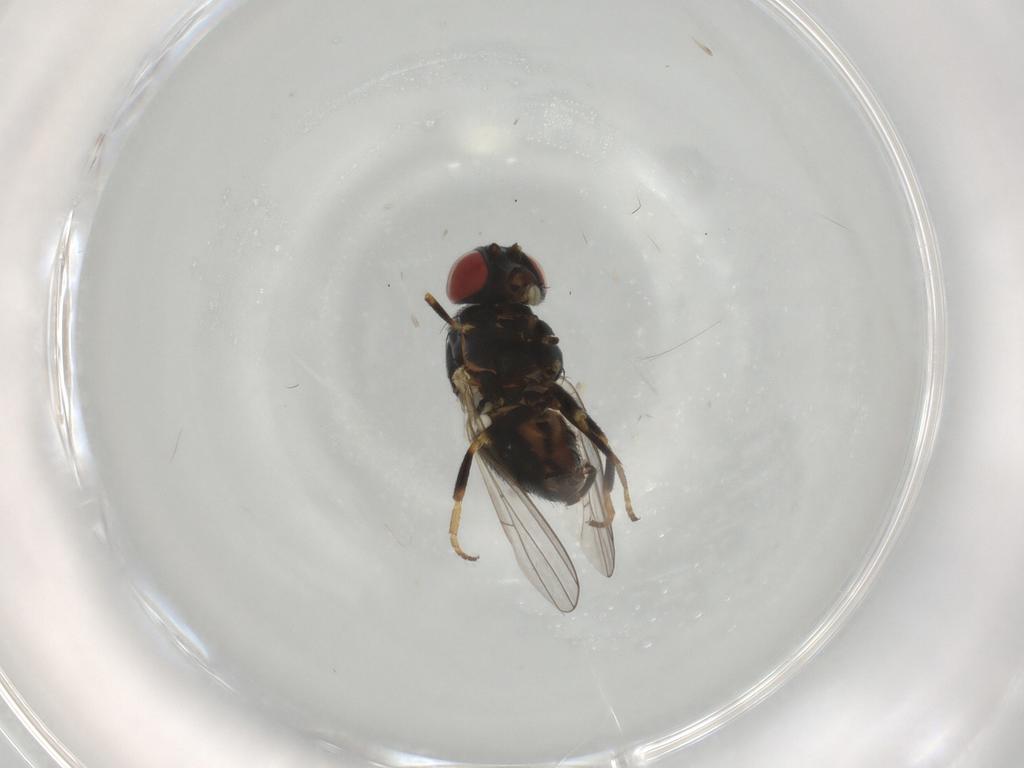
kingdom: Animalia
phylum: Arthropoda
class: Insecta
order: Diptera
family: Chamaemyiidae
